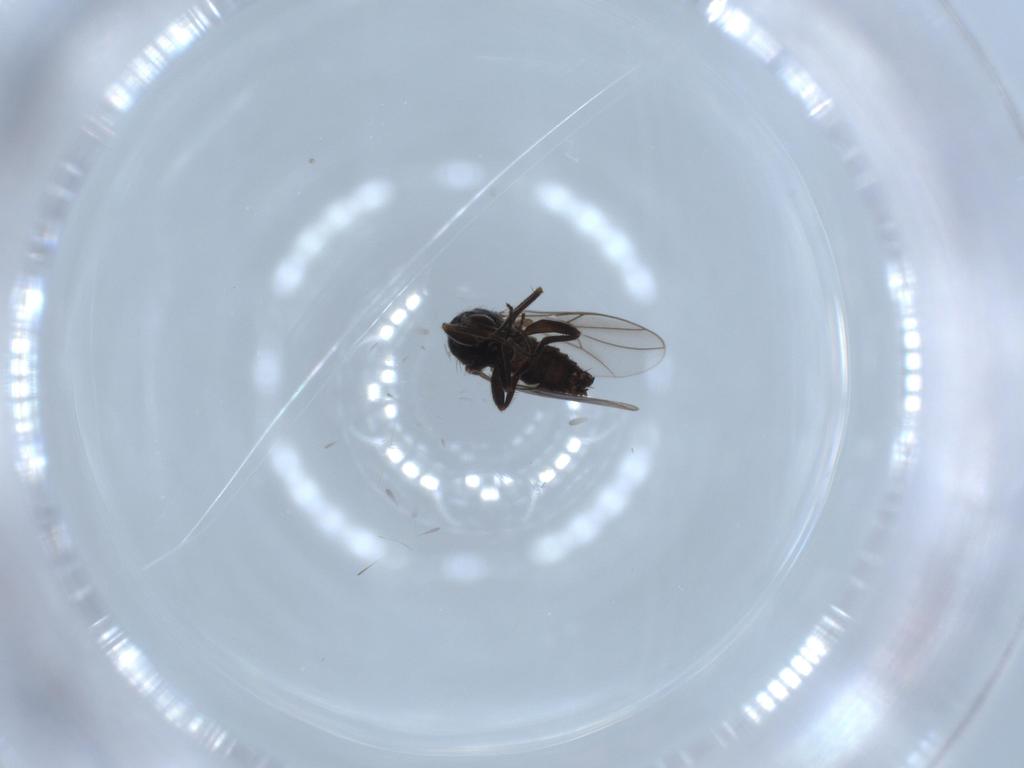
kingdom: Animalia
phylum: Arthropoda
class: Insecta
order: Diptera
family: Hybotidae
